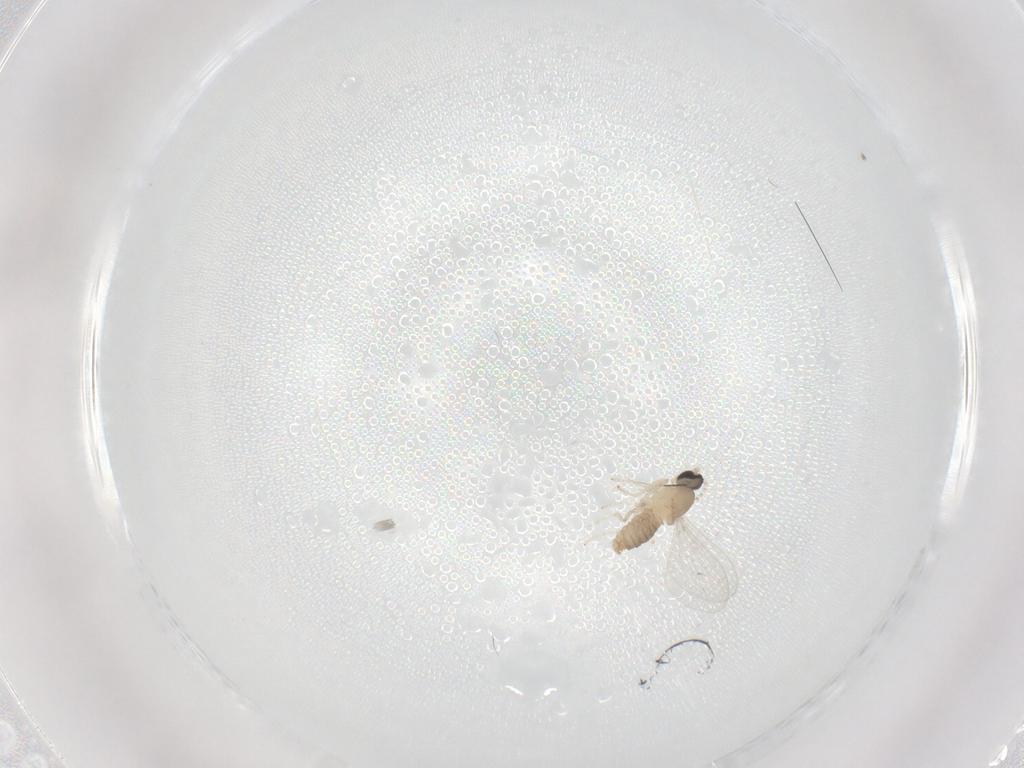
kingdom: Animalia
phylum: Arthropoda
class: Insecta
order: Diptera
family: Cecidomyiidae
